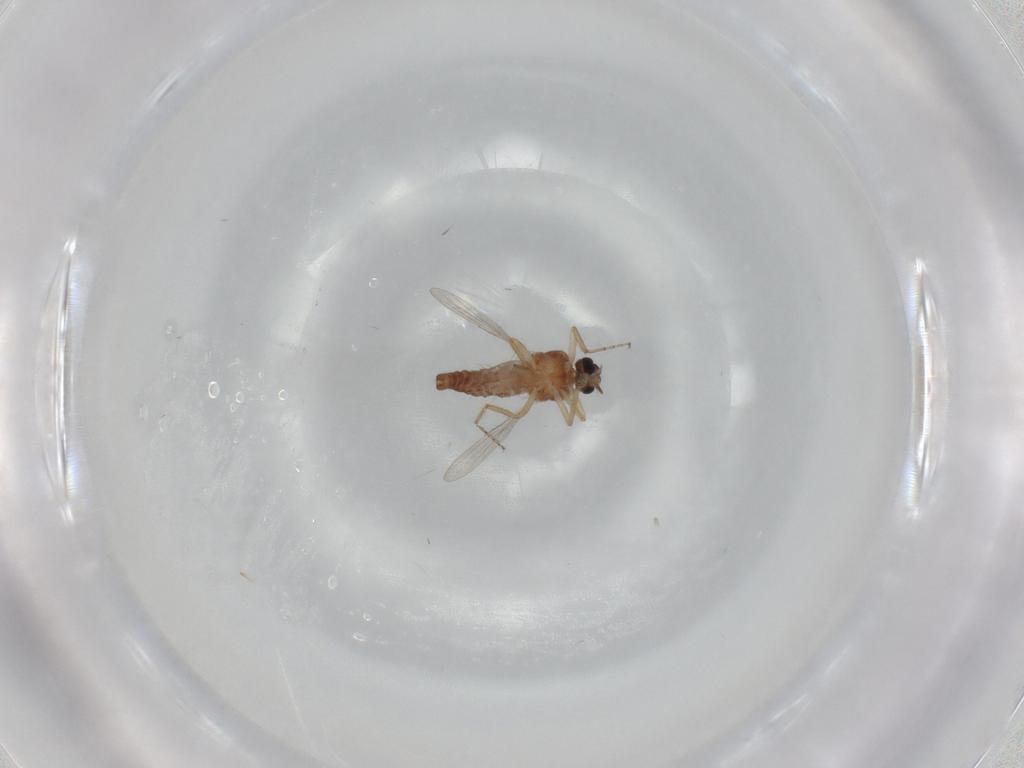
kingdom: Animalia
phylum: Arthropoda
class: Insecta
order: Diptera
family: Ceratopogonidae
